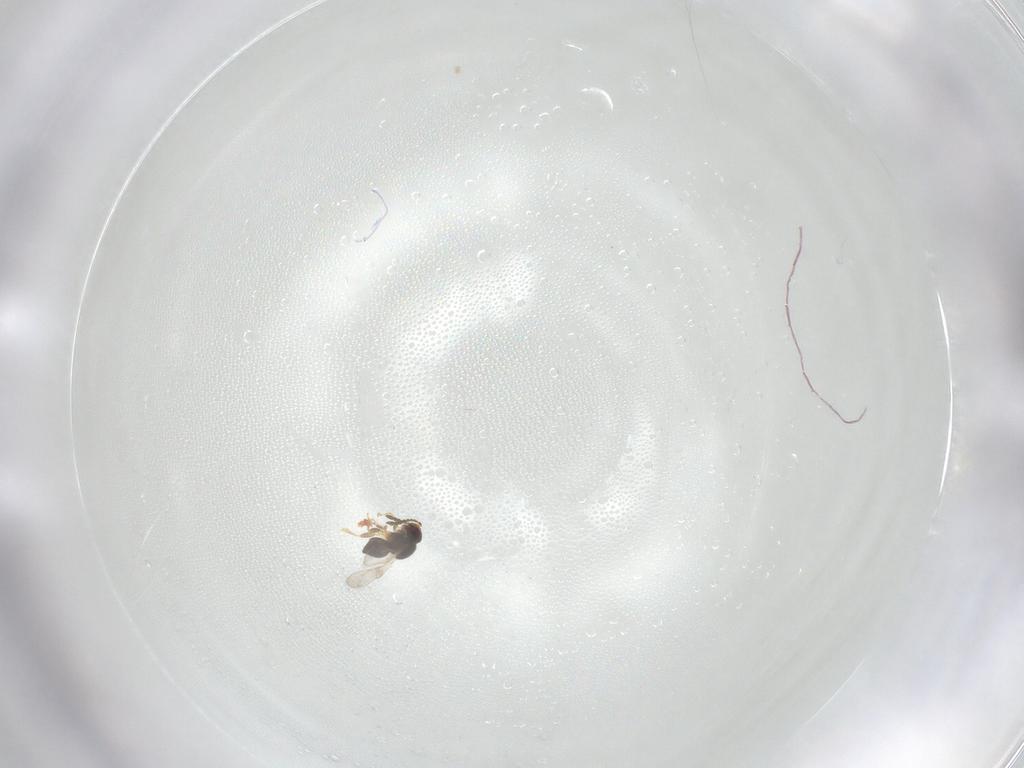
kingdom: Animalia
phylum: Arthropoda
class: Insecta
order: Hymenoptera
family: Ceraphronidae
